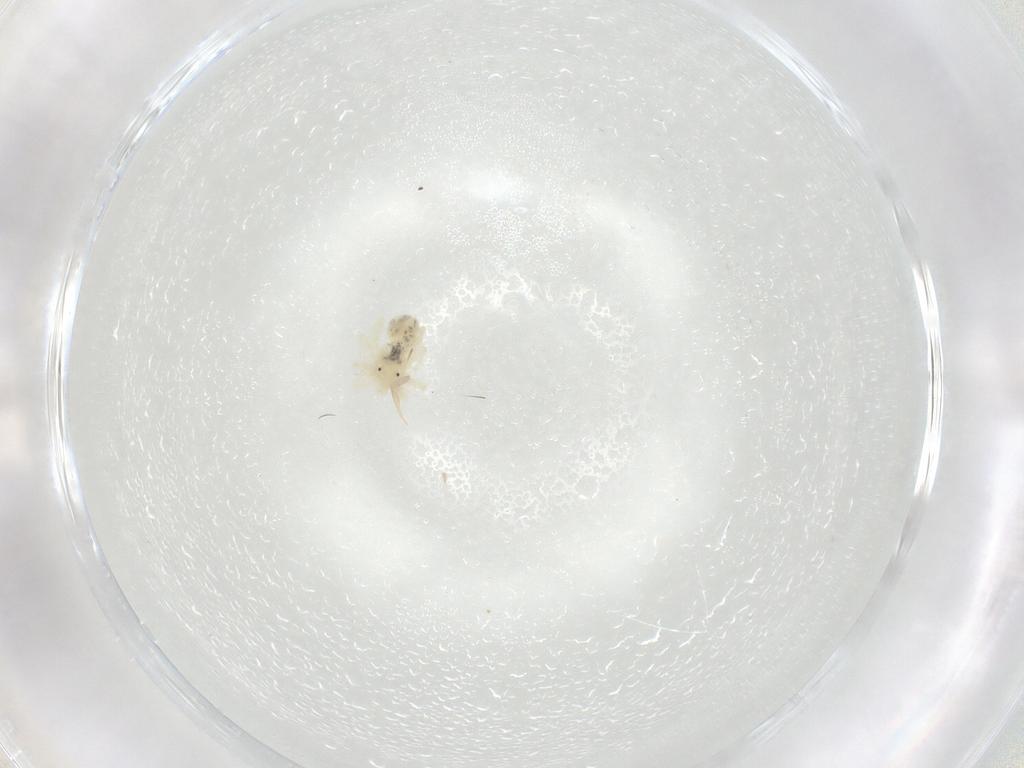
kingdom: Animalia
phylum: Arthropoda
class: Arachnida
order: Trombidiformes
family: Anystidae
